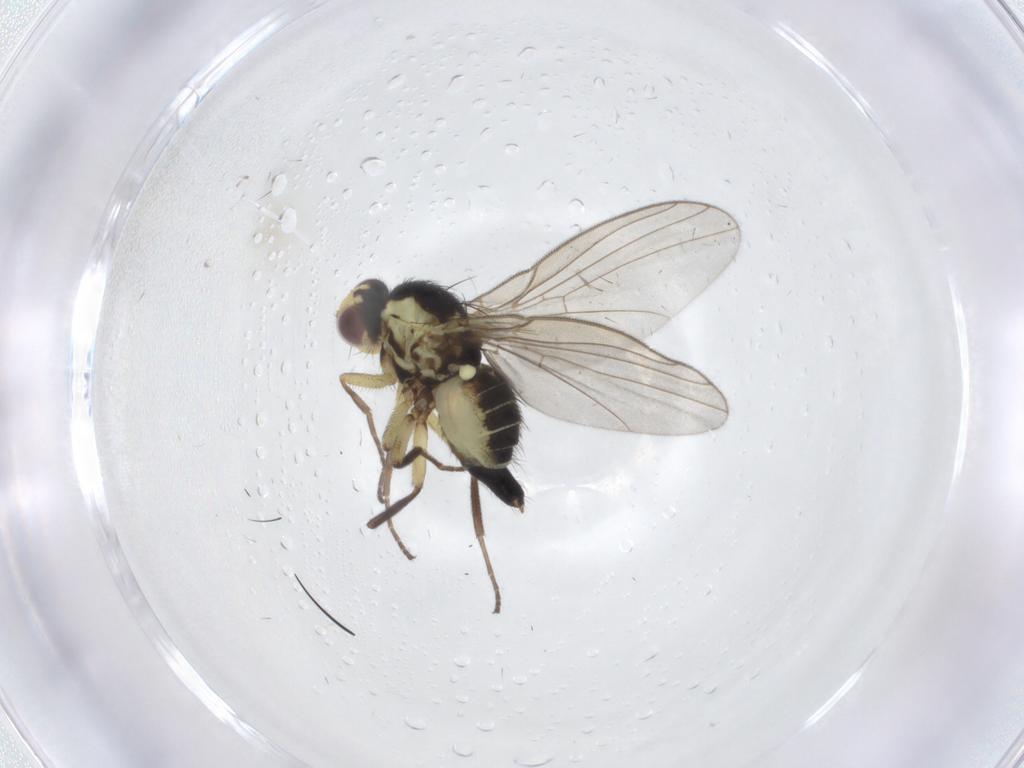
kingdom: Animalia
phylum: Arthropoda
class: Insecta
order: Diptera
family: Agromyzidae
